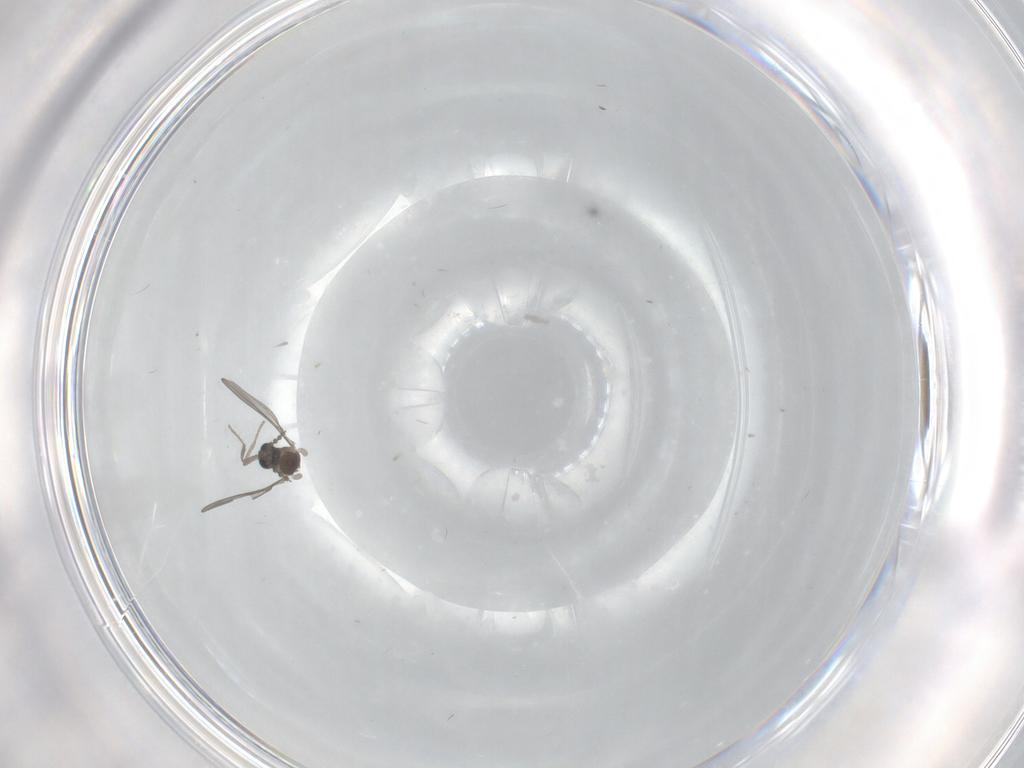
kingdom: Animalia
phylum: Arthropoda
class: Insecta
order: Diptera
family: Cecidomyiidae
